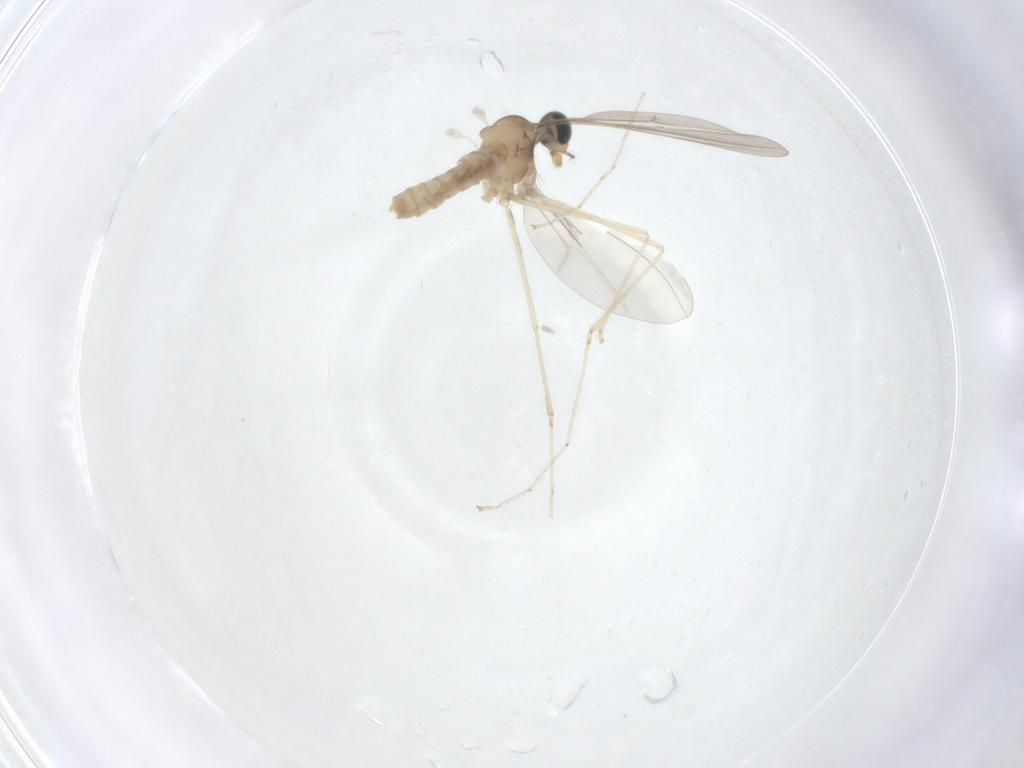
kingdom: Animalia
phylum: Arthropoda
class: Insecta
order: Diptera
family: Cecidomyiidae
